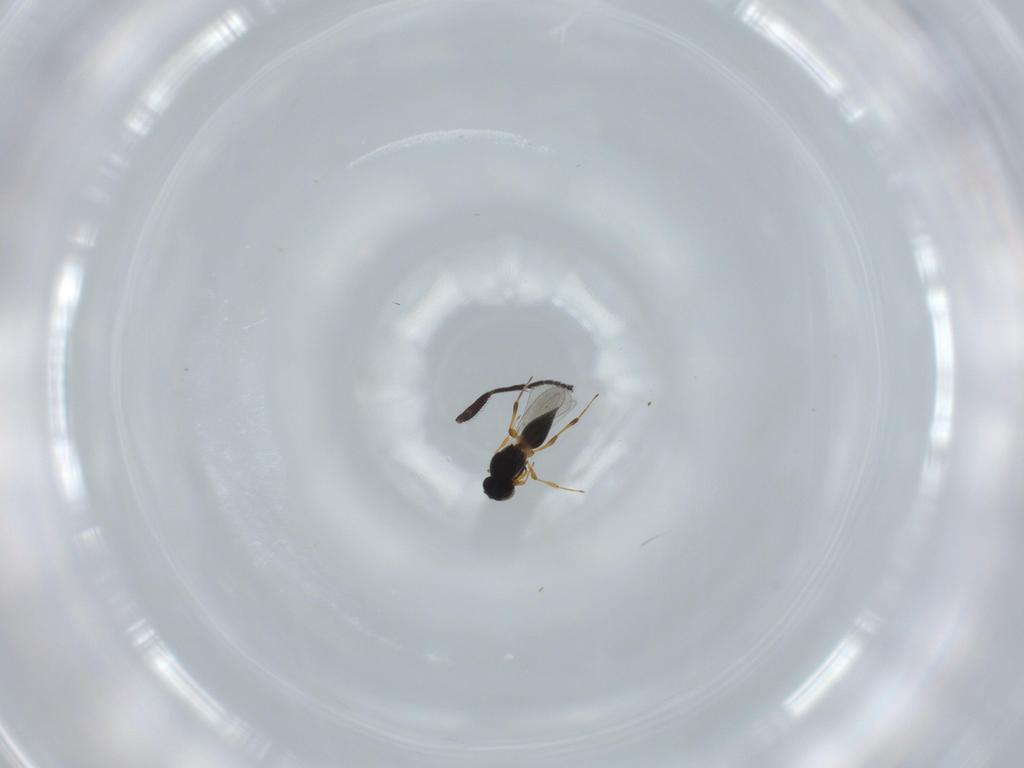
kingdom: Animalia
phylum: Arthropoda
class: Insecta
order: Hymenoptera
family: Platygastridae
